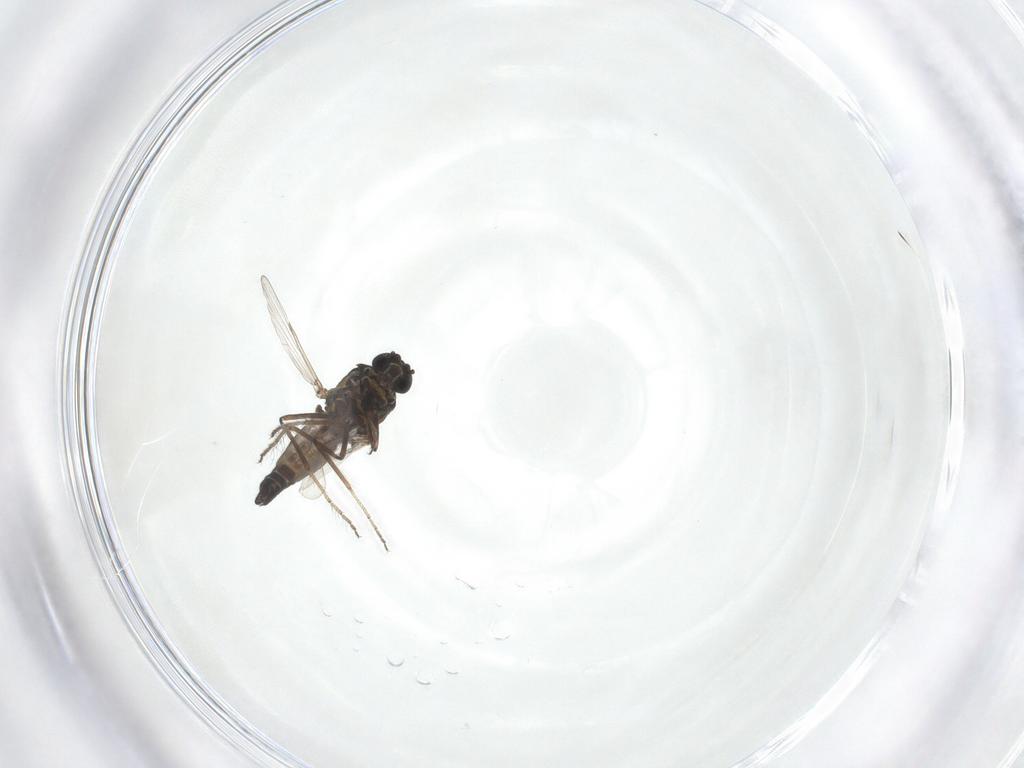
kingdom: Animalia
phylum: Arthropoda
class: Insecta
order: Diptera
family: Ceratopogonidae
